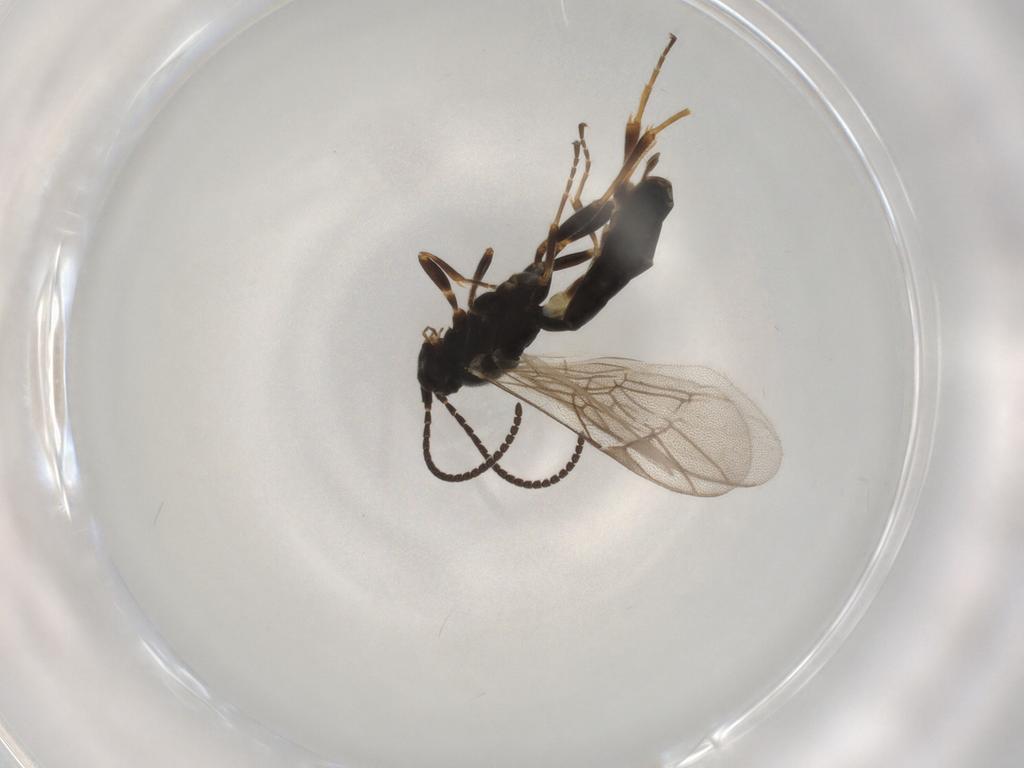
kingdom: Animalia
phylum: Arthropoda
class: Insecta
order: Hymenoptera
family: Ichneumonidae
